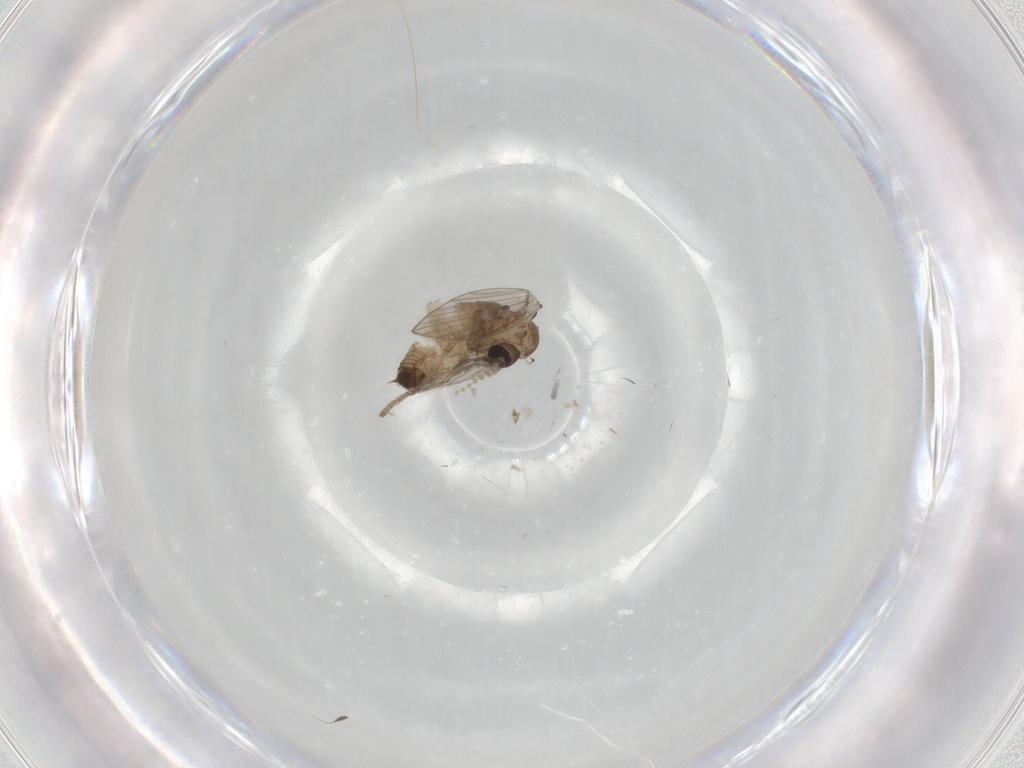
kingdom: Animalia
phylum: Arthropoda
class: Insecta
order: Diptera
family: Psychodidae
